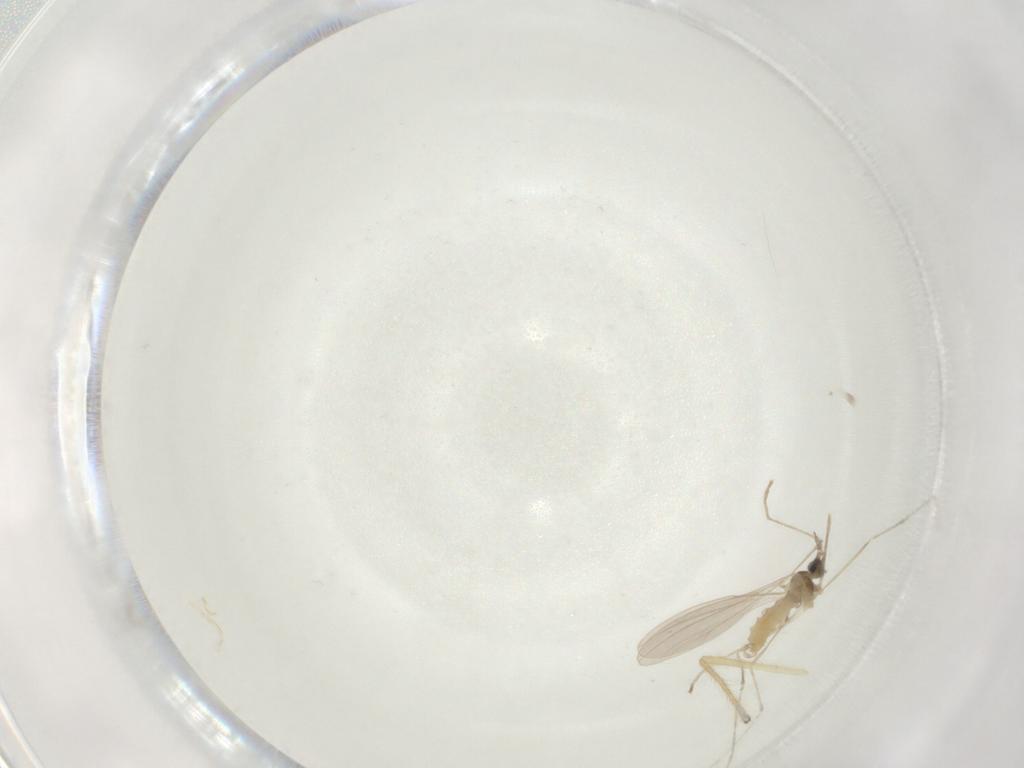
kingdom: Animalia
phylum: Arthropoda
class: Insecta
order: Diptera
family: Cecidomyiidae
